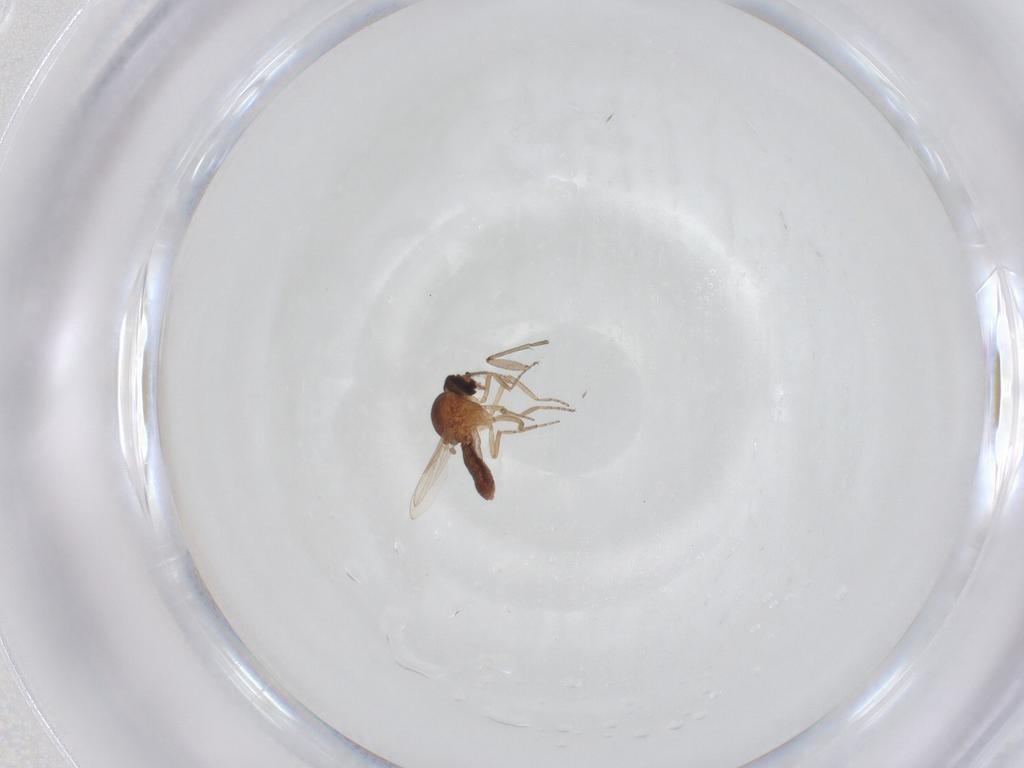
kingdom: Animalia
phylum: Arthropoda
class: Insecta
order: Diptera
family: Ceratopogonidae
